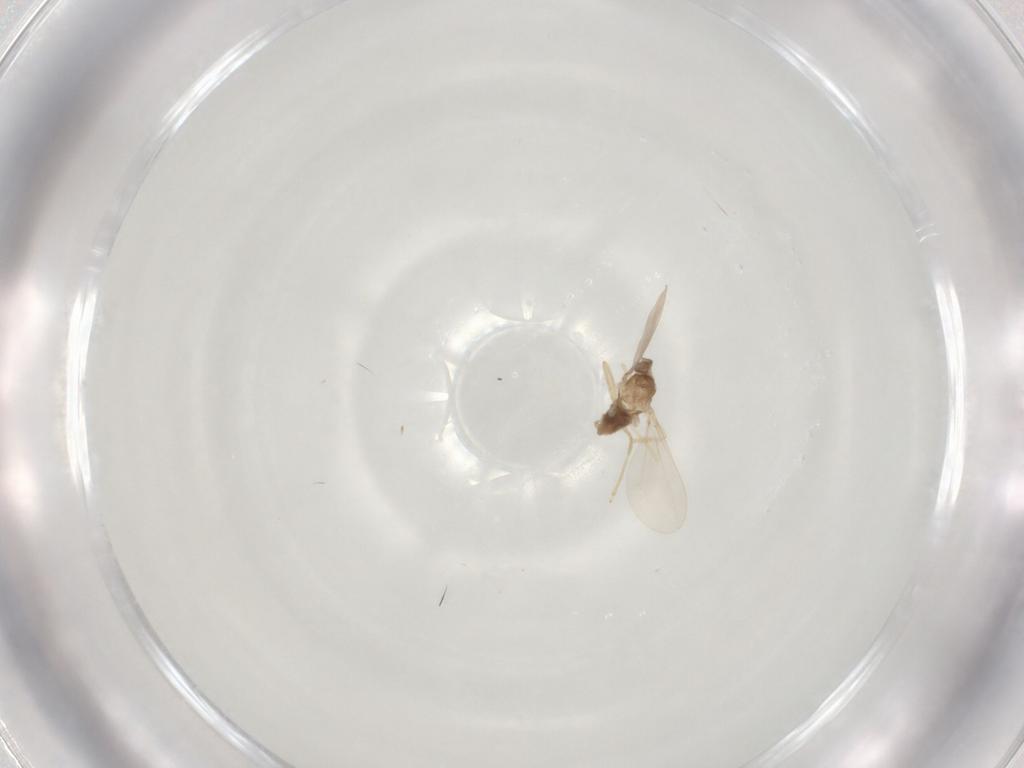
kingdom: Animalia
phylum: Arthropoda
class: Insecta
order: Diptera
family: Cecidomyiidae
